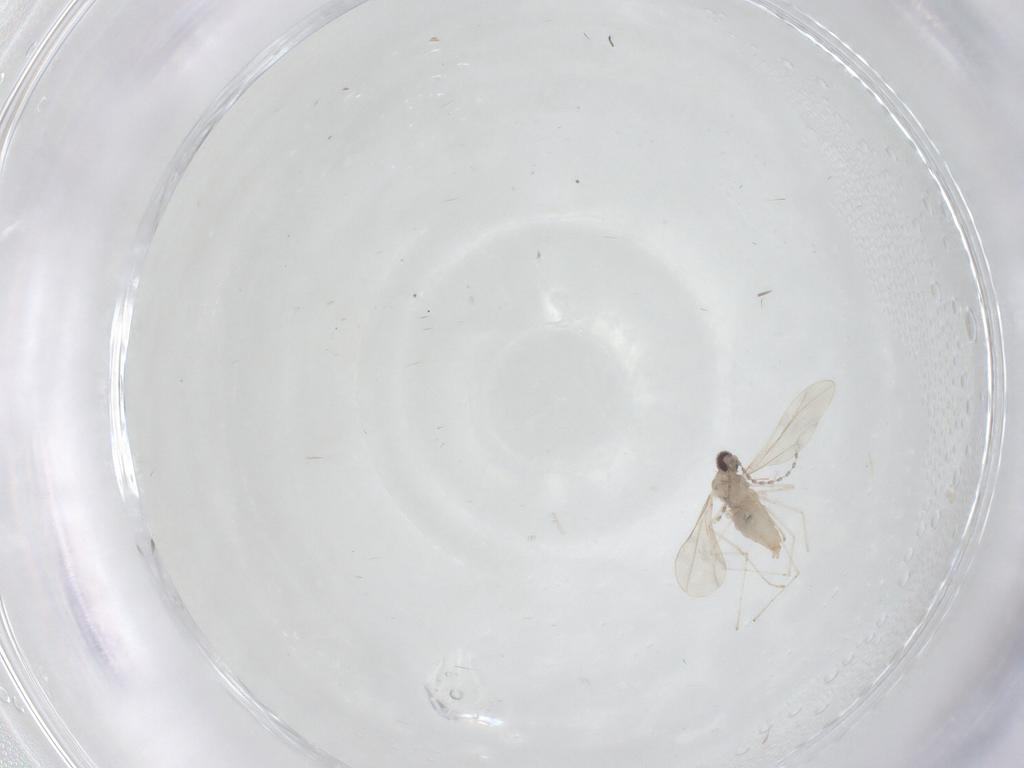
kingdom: Animalia
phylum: Arthropoda
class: Insecta
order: Diptera
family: Cecidomyiidae
